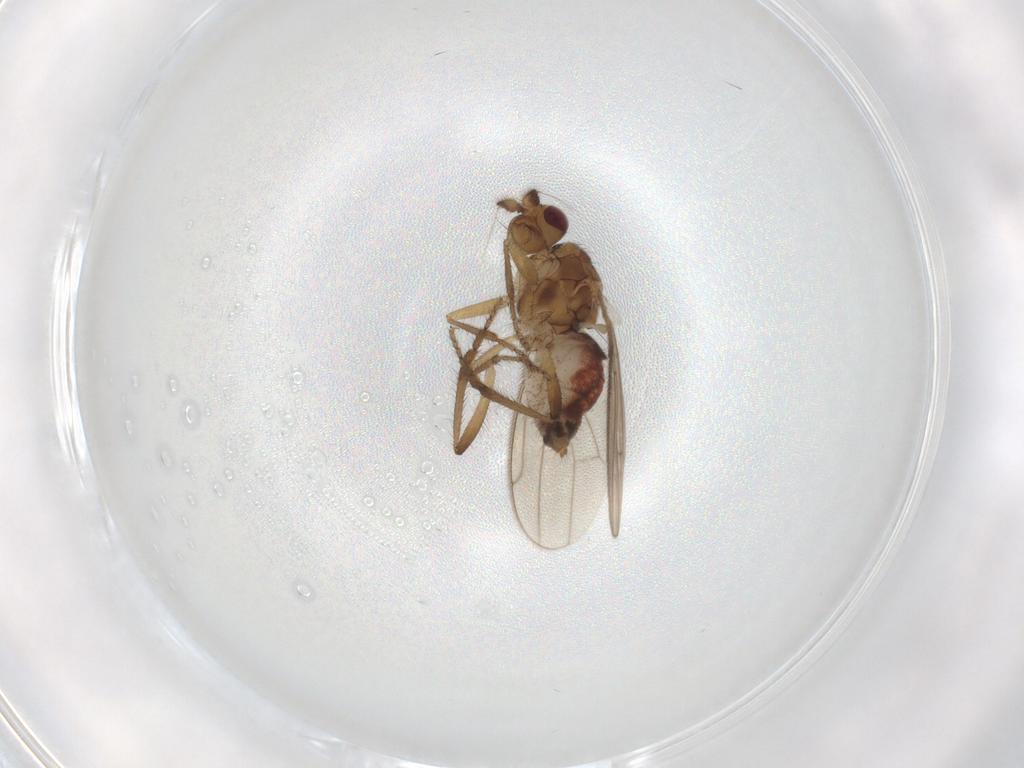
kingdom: Animalia
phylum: Arthropoda
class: Insecta
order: Diptera
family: Sphaeroceridae
